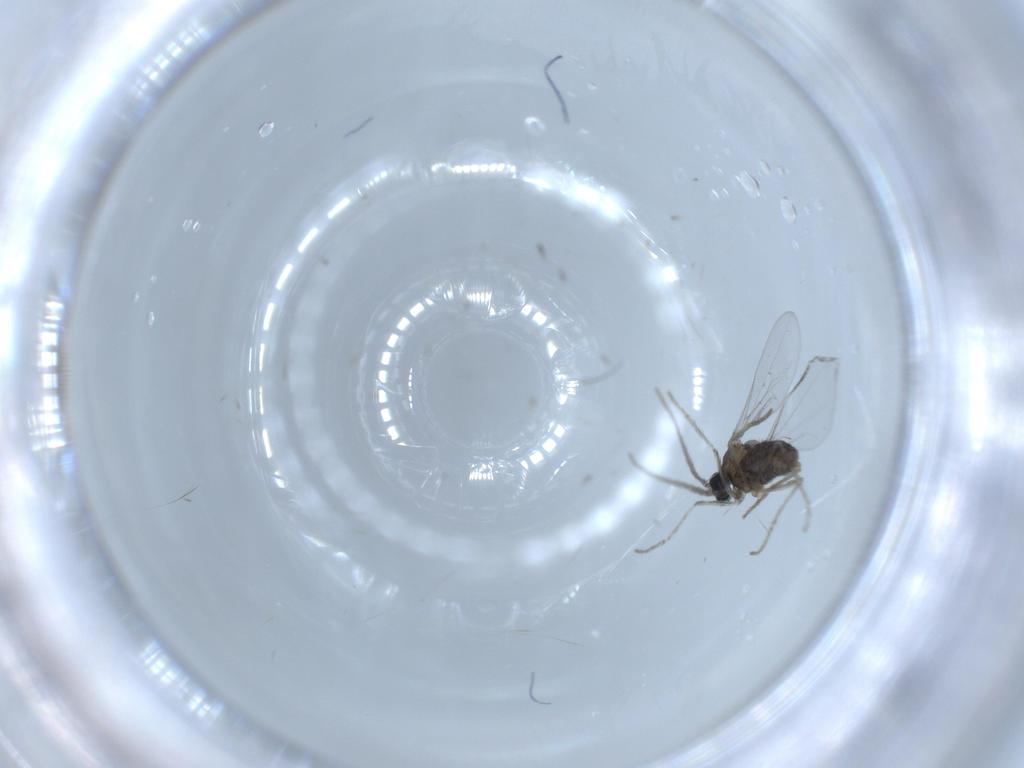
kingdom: Animalia
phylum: Arthropoda
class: Insecta
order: Diptera
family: Cecidomyiidae
